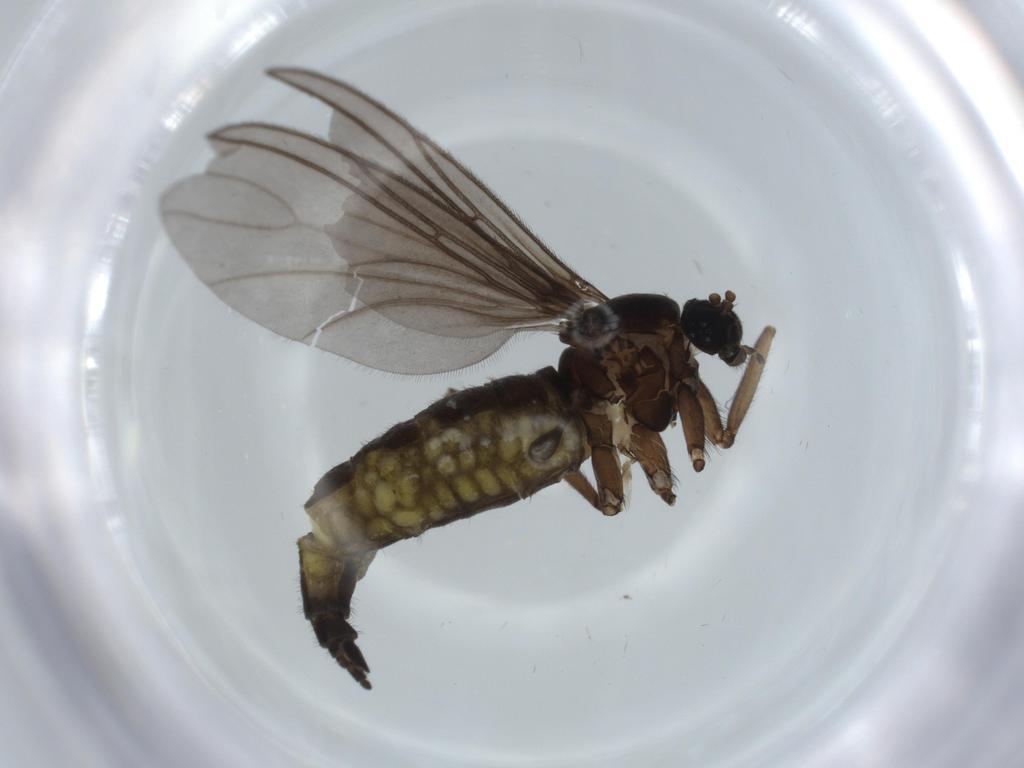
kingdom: Animalia
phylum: Arthropoda
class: Insecta
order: Diptera
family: Sciaridae
